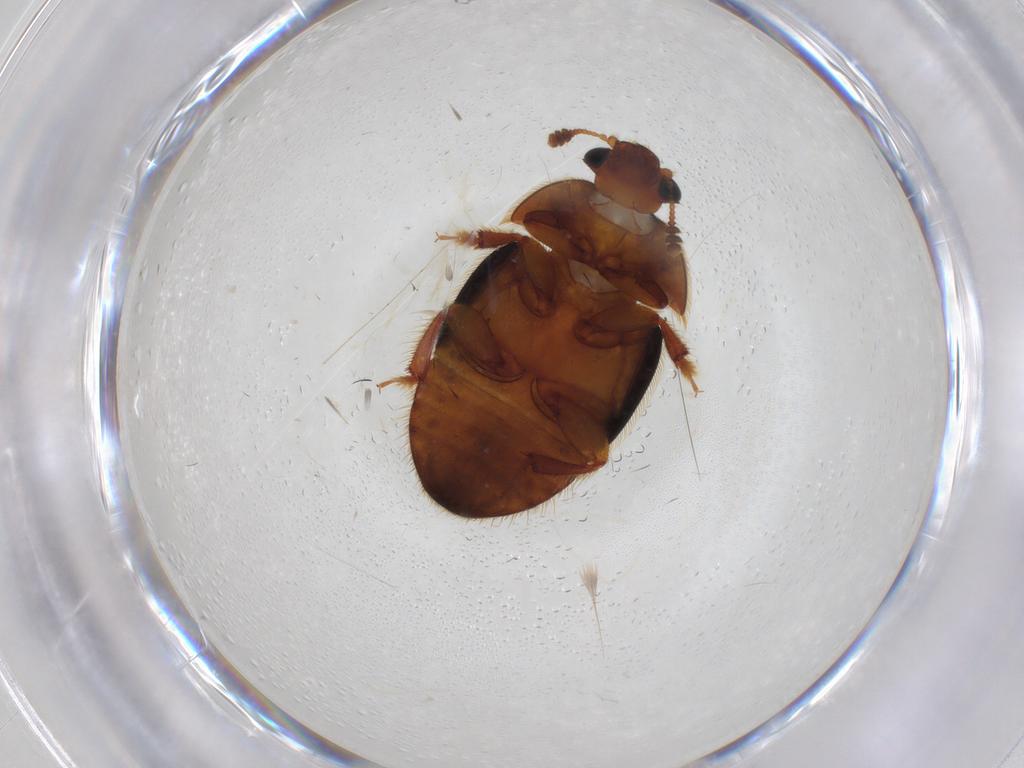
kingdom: Animalia
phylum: Arthropoda
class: Insecta
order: Coleoptera
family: Nitidulidae
